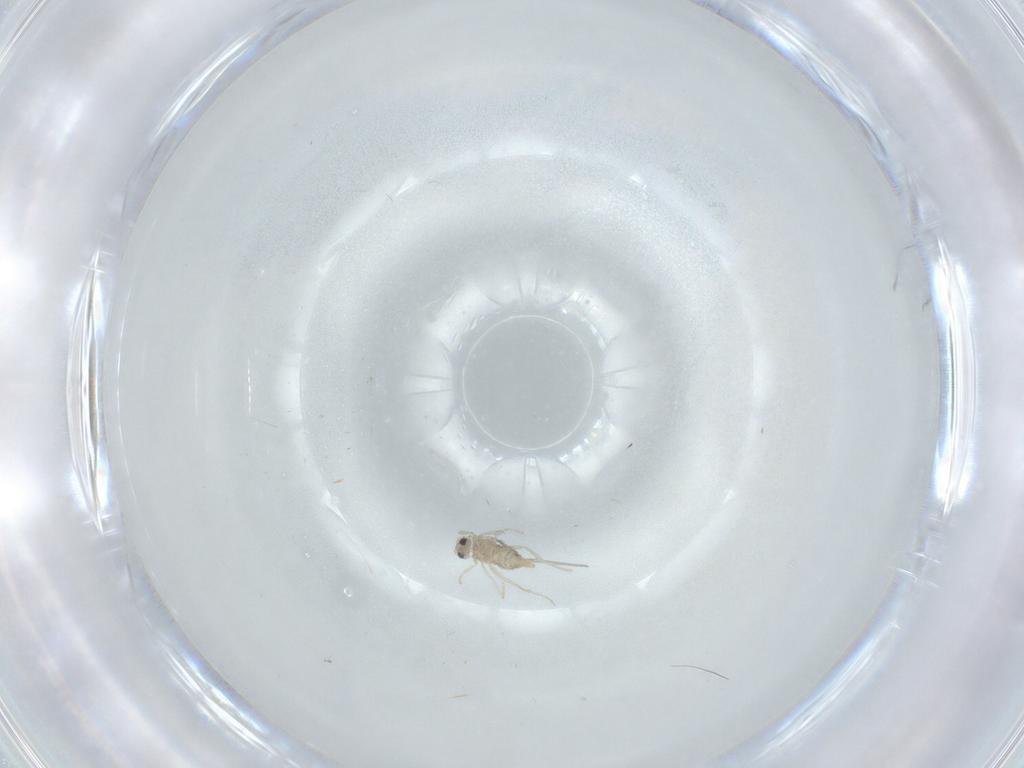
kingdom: Animalia
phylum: Arthropoda
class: Insecta
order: Diptera
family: Cecidomyiidae
